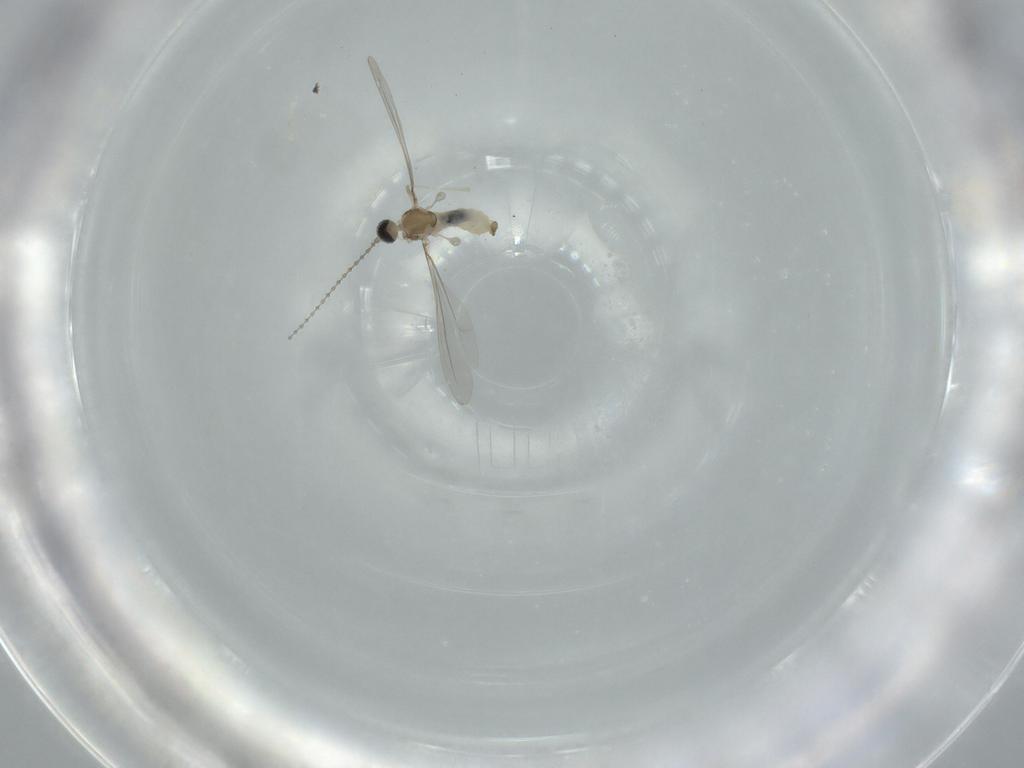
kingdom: Animalia
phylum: Arthropoda
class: Insecta
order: Diptera
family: Cecidomyiidae
